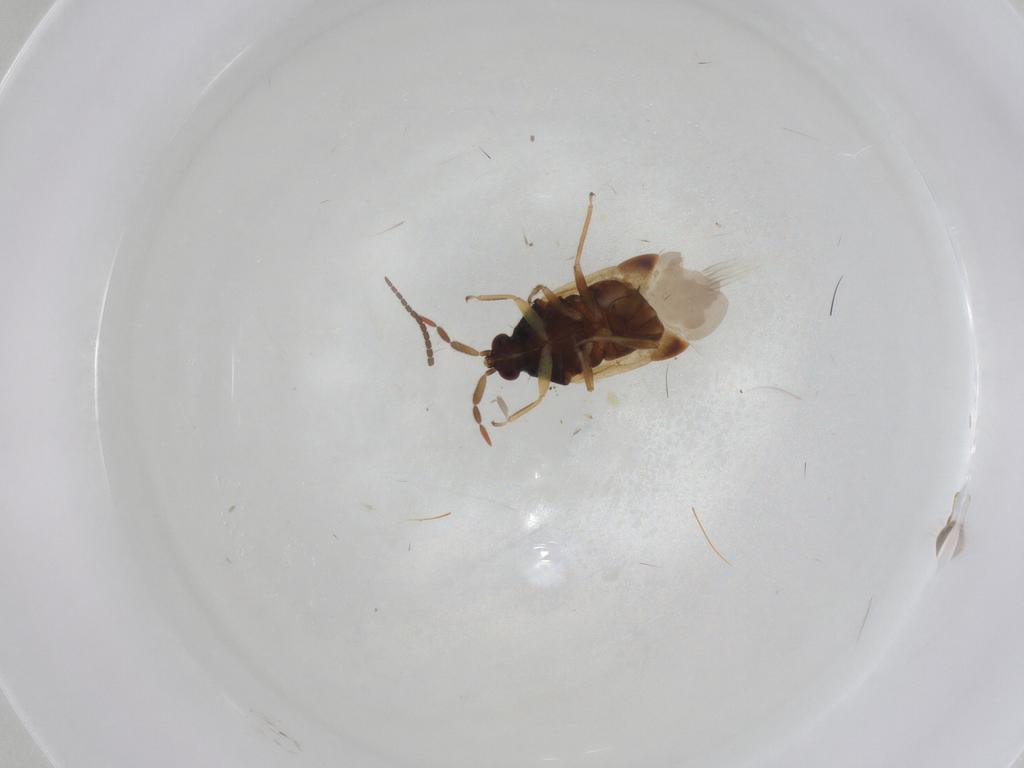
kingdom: Animalia
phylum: Arthropoda
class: Insecta
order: Hemiptera
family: Anthocoridae
